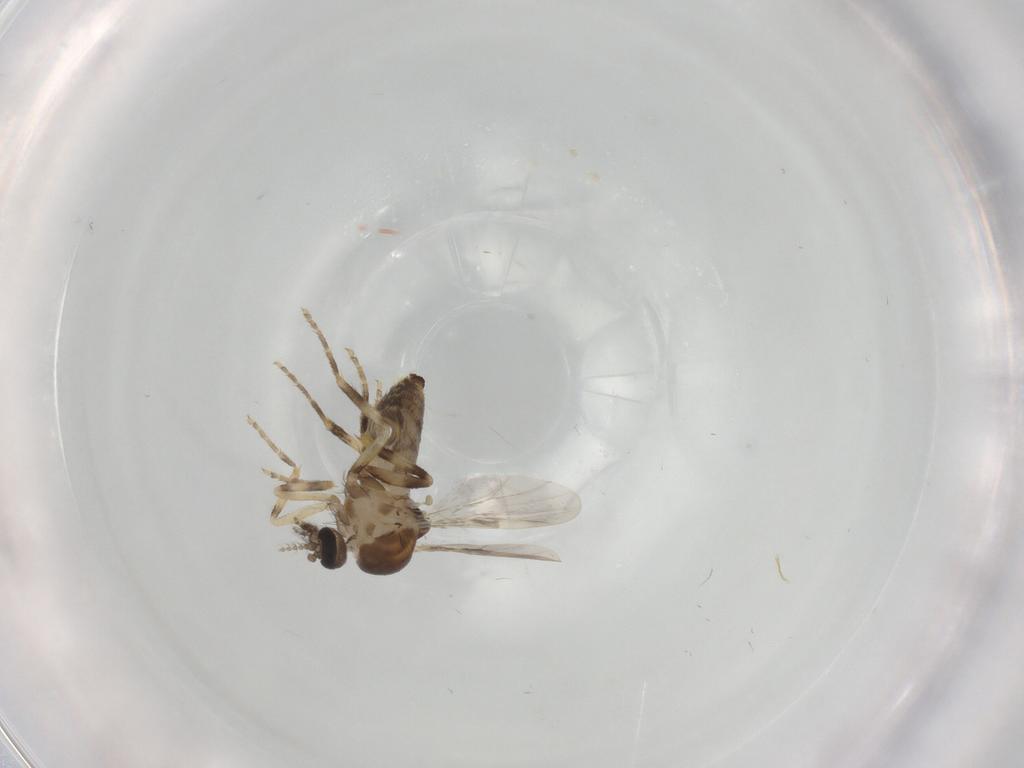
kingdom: Animalia
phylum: Arthropoda
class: Insecta
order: Diptera
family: Ceratopogonidae
